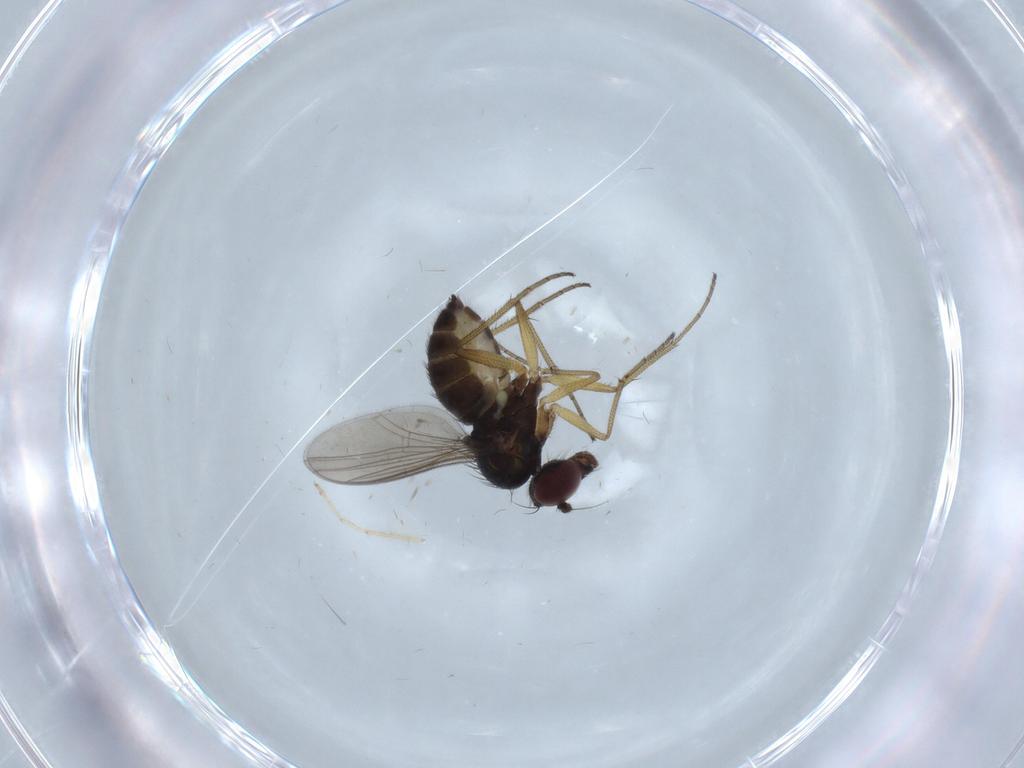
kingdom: Animalia
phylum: Arthropoda
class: Insecta
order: Diptera
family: Dolichopodidae
